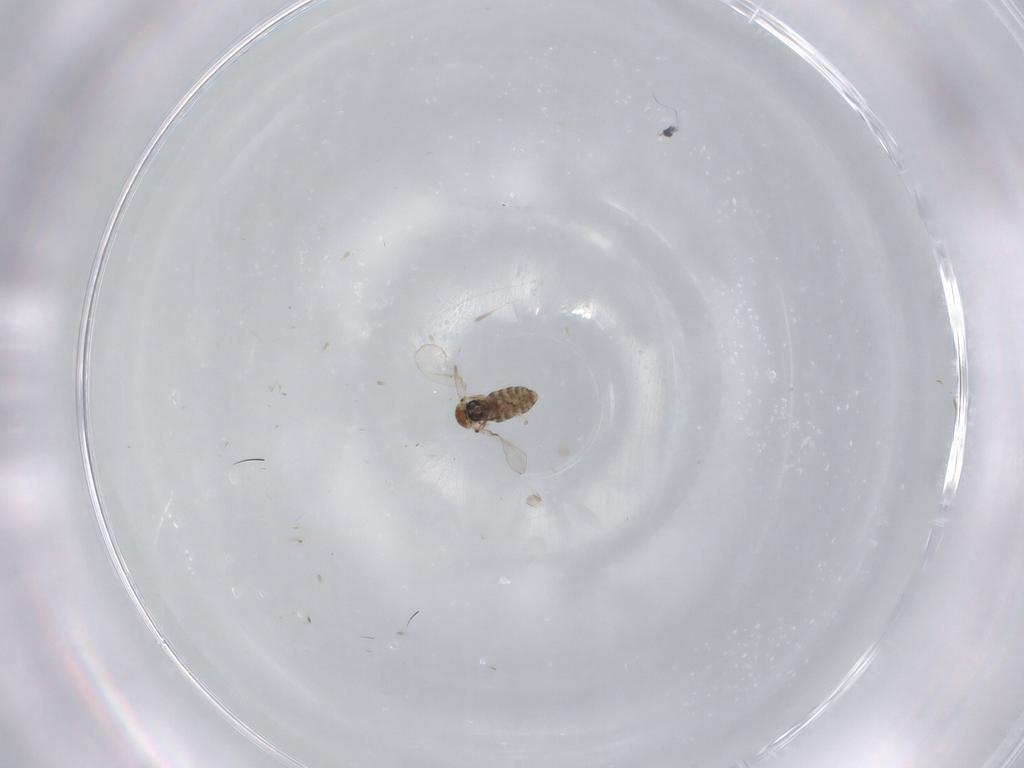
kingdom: Animalia
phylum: Arthropoda
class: Insecta
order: Diptera
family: Ceratopogonidae
